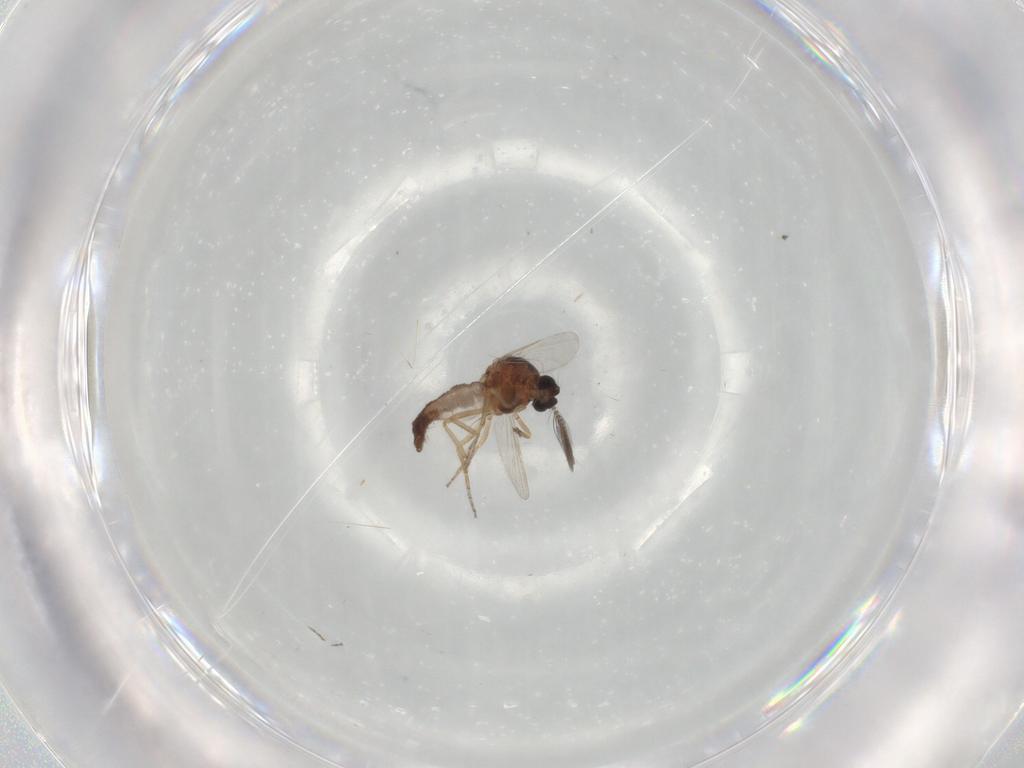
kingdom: Animalia
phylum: Arthropoda
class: Insecta
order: Diptera
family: Ceratopogonidae
